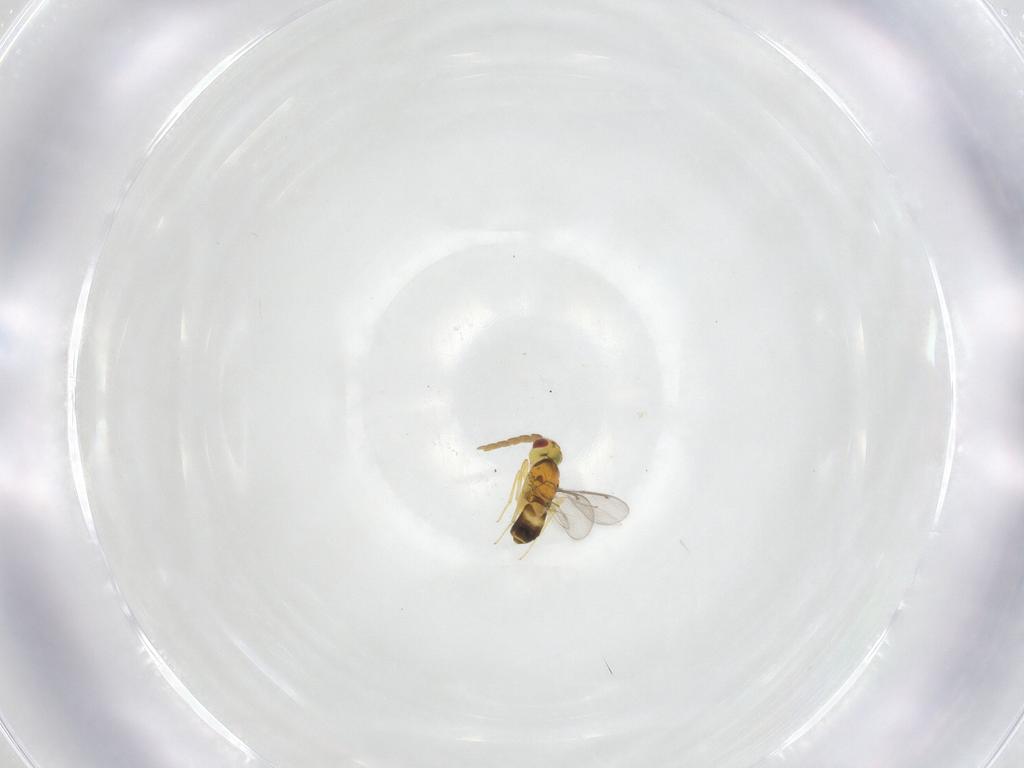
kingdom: Animalia
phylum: Arthropoda
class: Insecta
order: Hymenoptera
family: Aphelinidae
